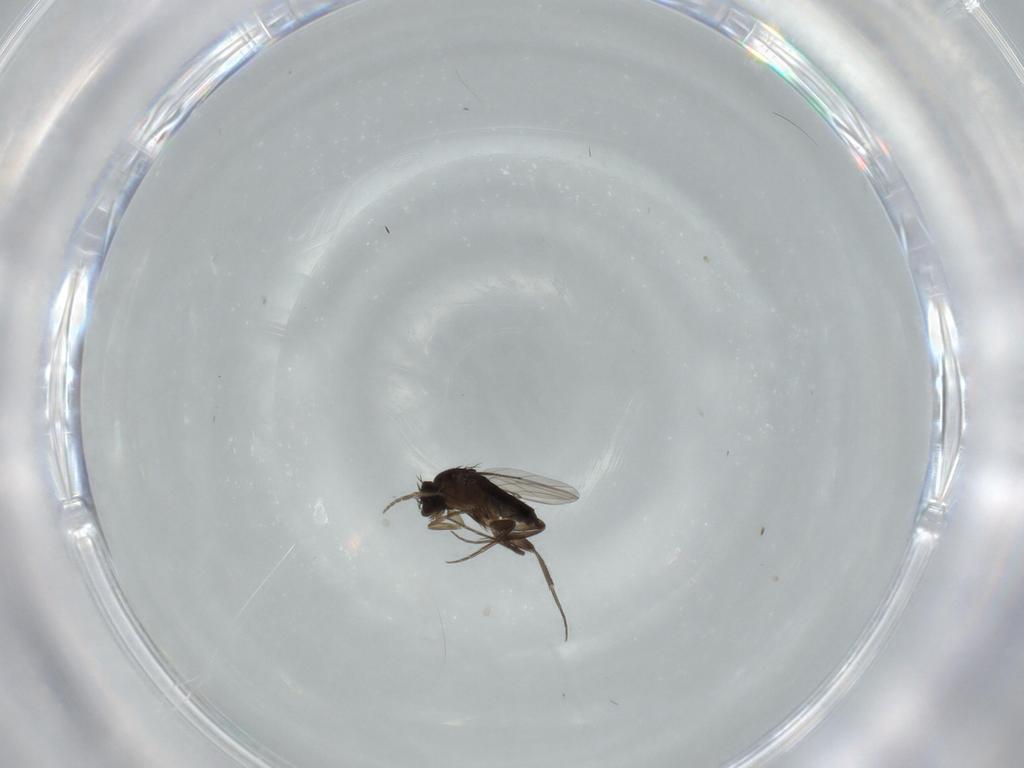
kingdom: Animalia
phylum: Arthropoda
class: Insecta
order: Diptera
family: Phoridae
